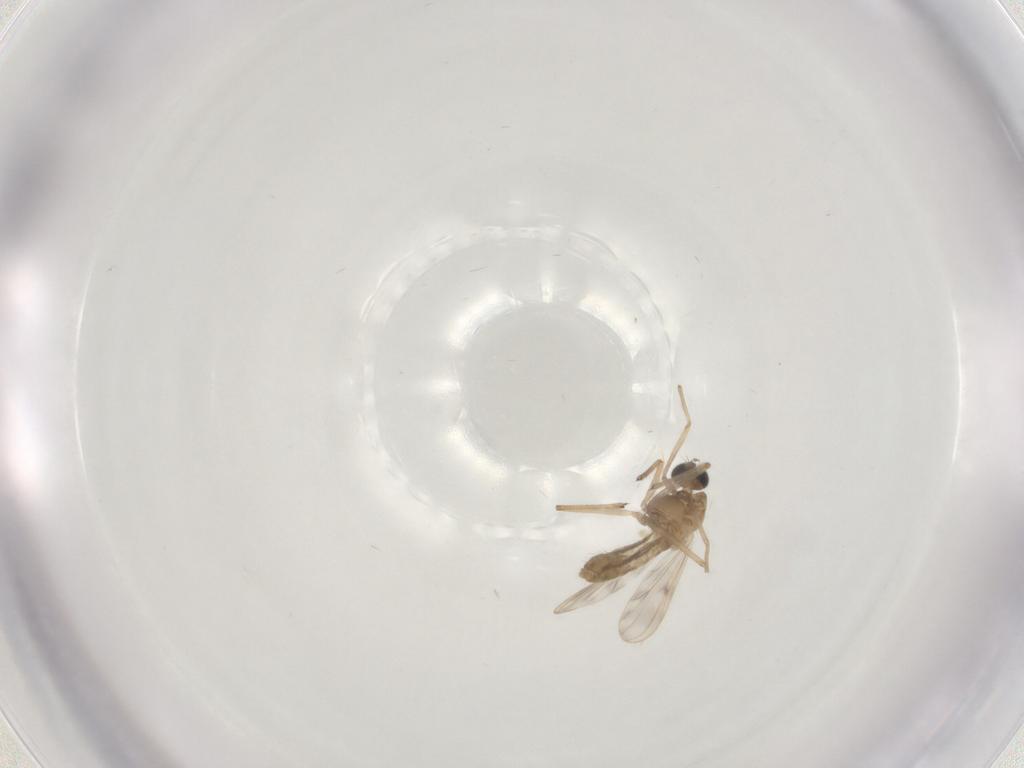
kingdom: Animalia
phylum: Arthropoda
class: Insecta
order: Diptera
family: Chironomidae
